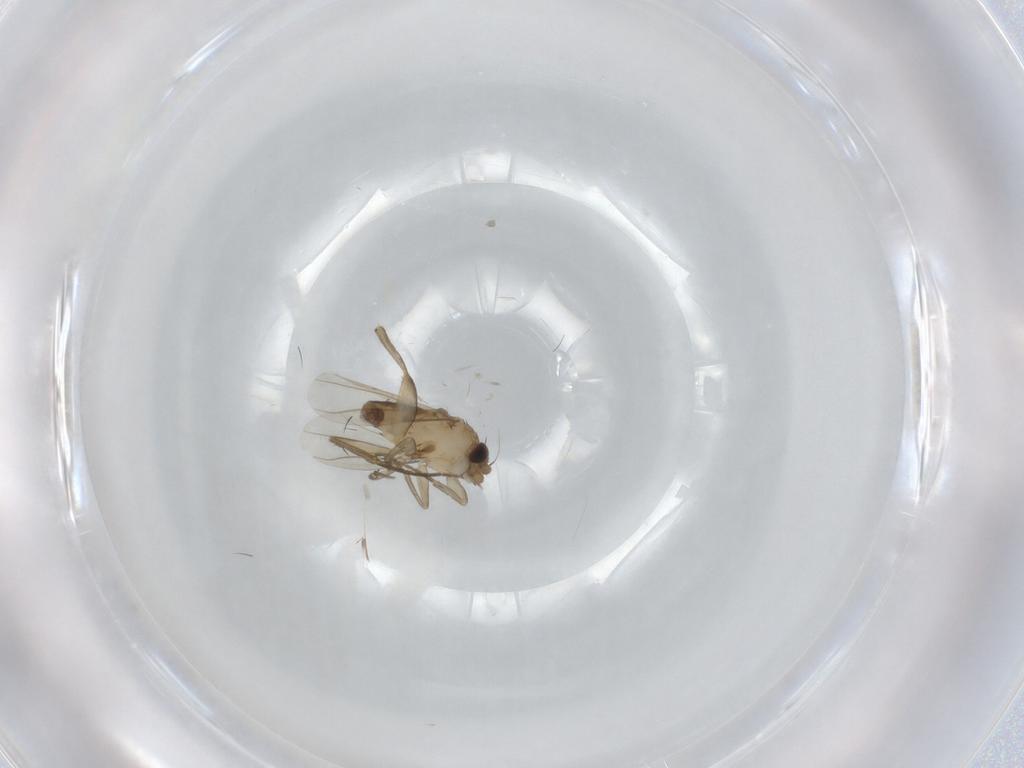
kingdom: Animalia
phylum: Arthropoda
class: Insecta
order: Diptera
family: Phoridae
